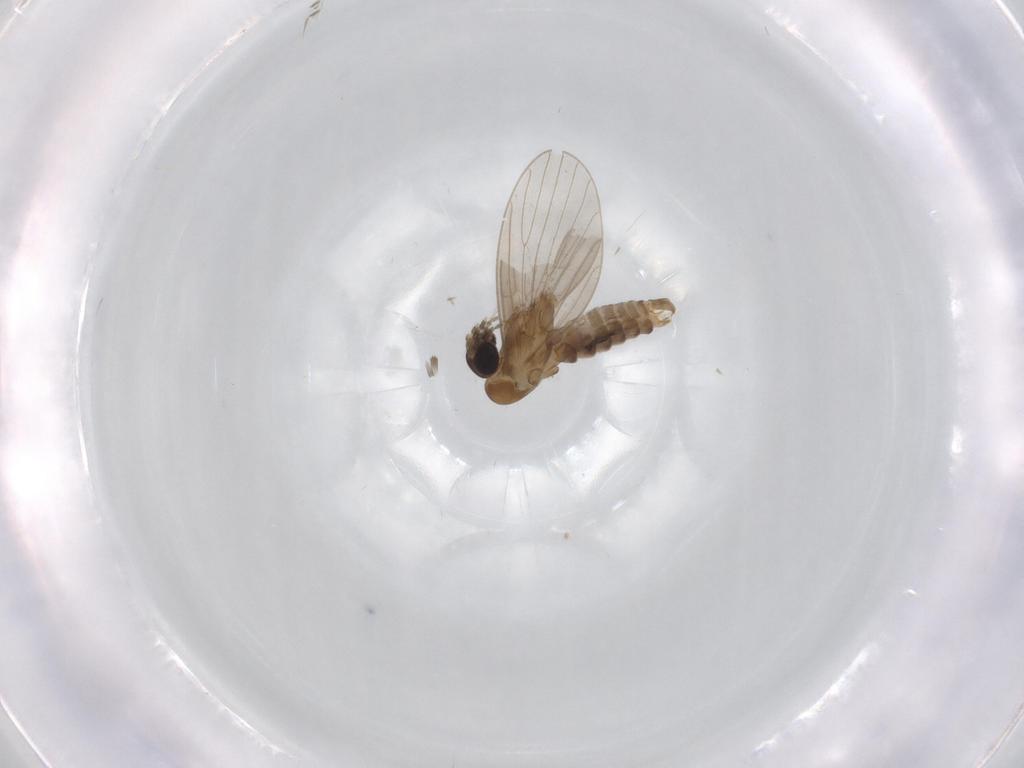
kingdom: Animalia
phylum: Arthropoda
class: Insecta
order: Diptera
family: Psychodidae
